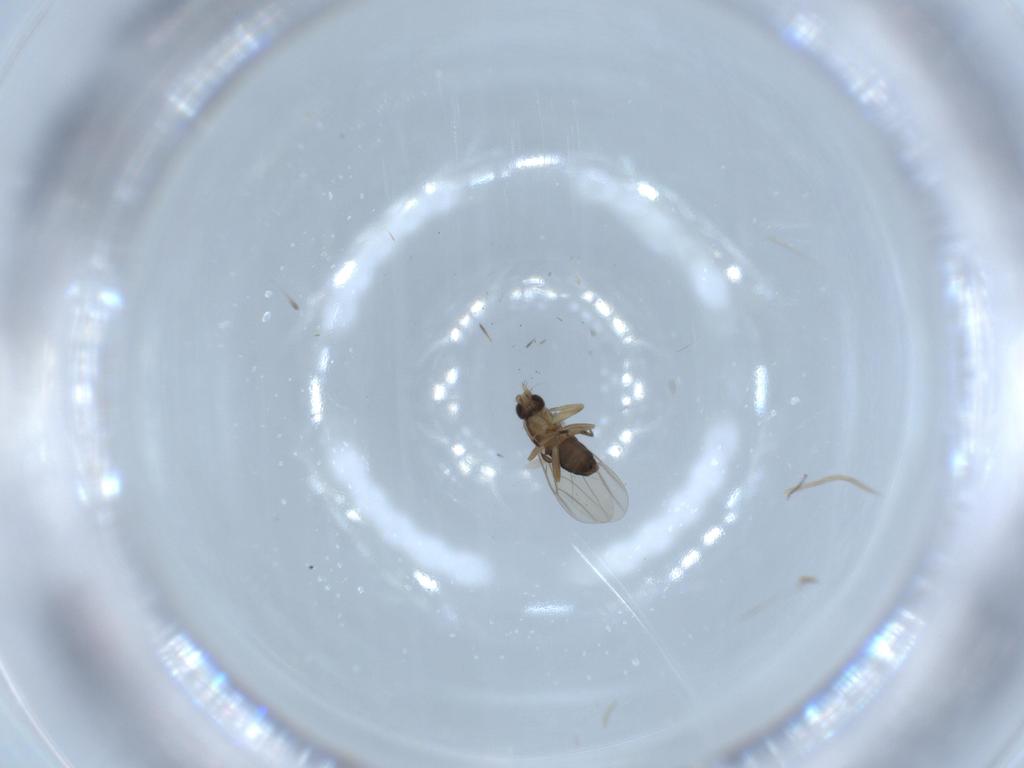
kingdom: Animalia
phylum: Arthropoda
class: Insecta
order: Diptera
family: Phoridae
